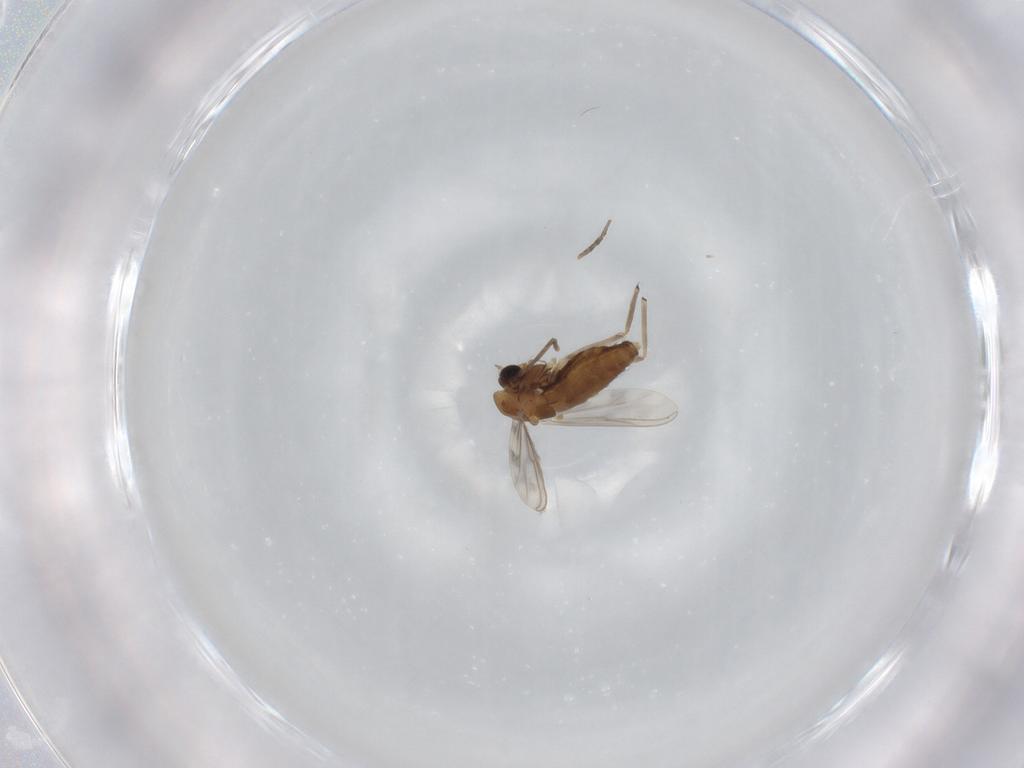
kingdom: Animalia
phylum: Arthropoda
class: Insecta
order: Diptera
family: Chironomidae
